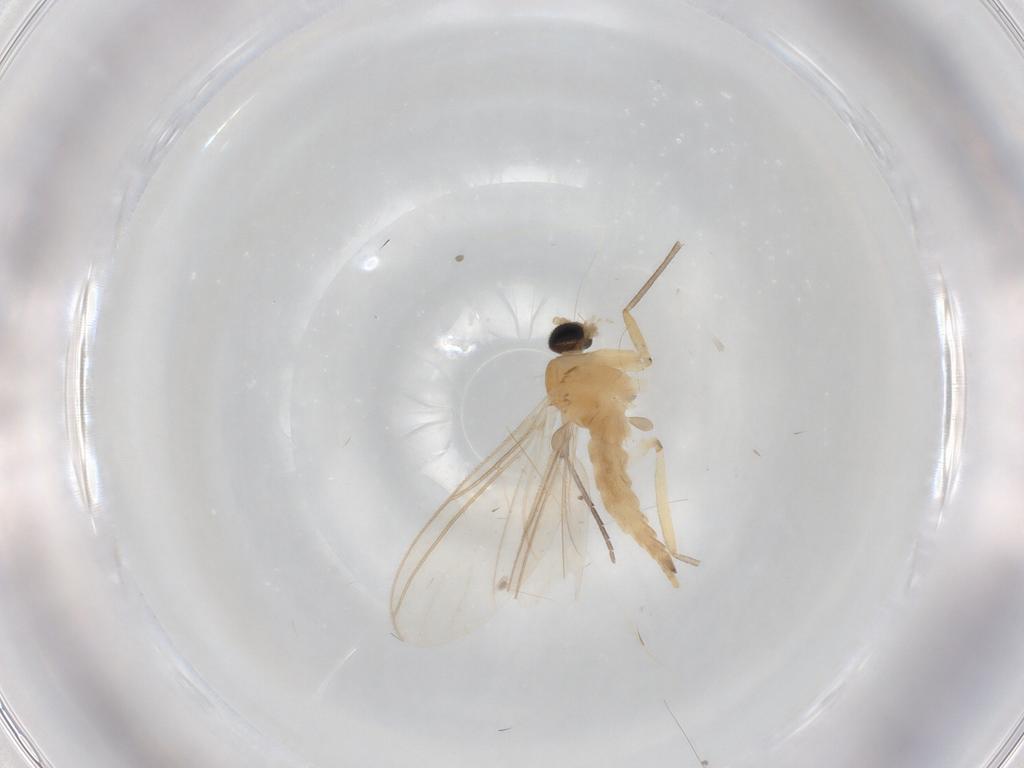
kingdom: Animalia
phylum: Arthropoda
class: Insecta
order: Diptera
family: Sciaridae
